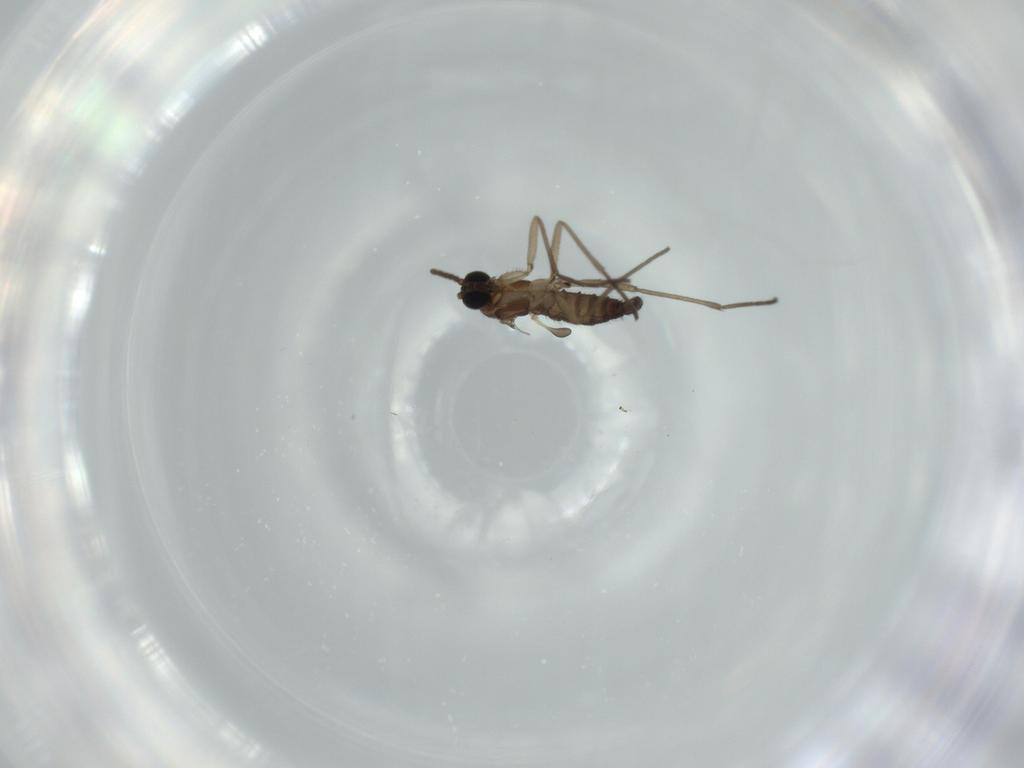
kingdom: Animalia
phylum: Arthropoda
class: Insecta
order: Diptera
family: Sciaridae
